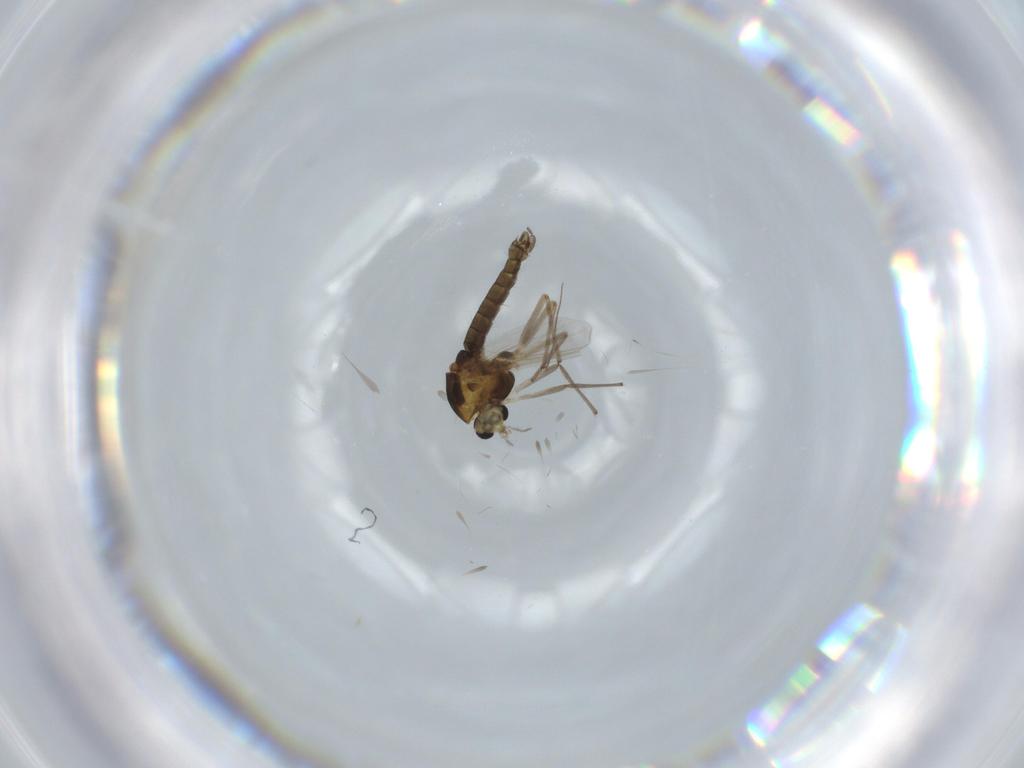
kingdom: Animalia
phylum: Arthropoda
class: Insecta
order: Diptera
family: Chironomidae
